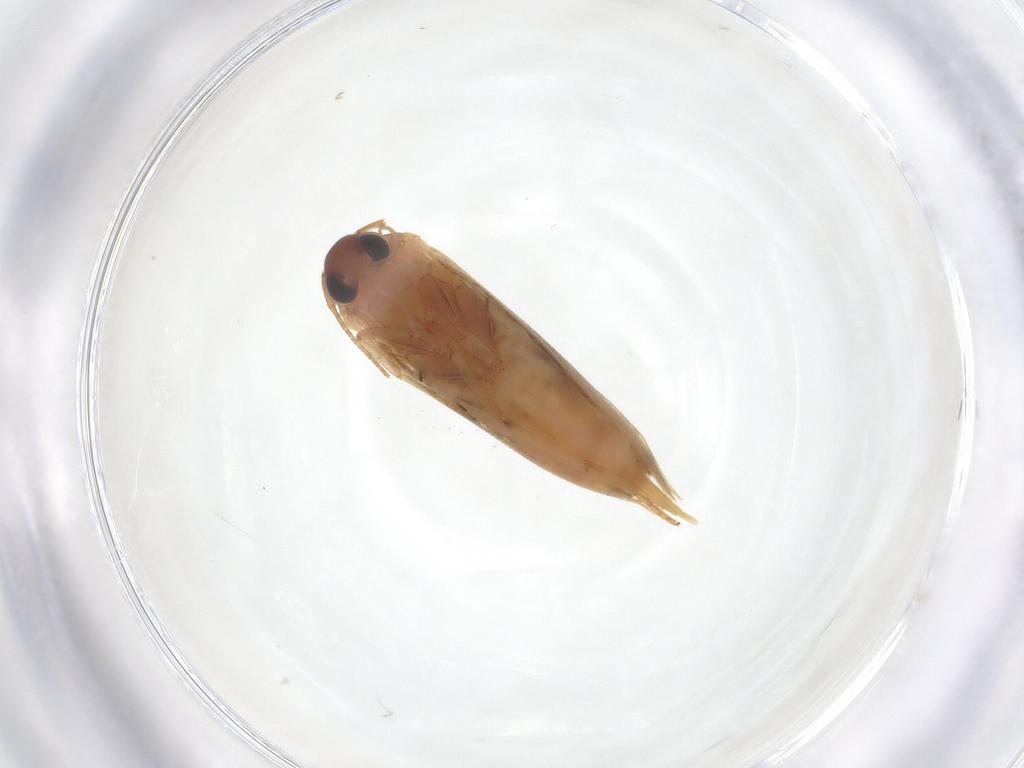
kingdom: Animalia
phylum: Arthropoda
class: Insecta
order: Lepidoptera
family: Blastobasidae
